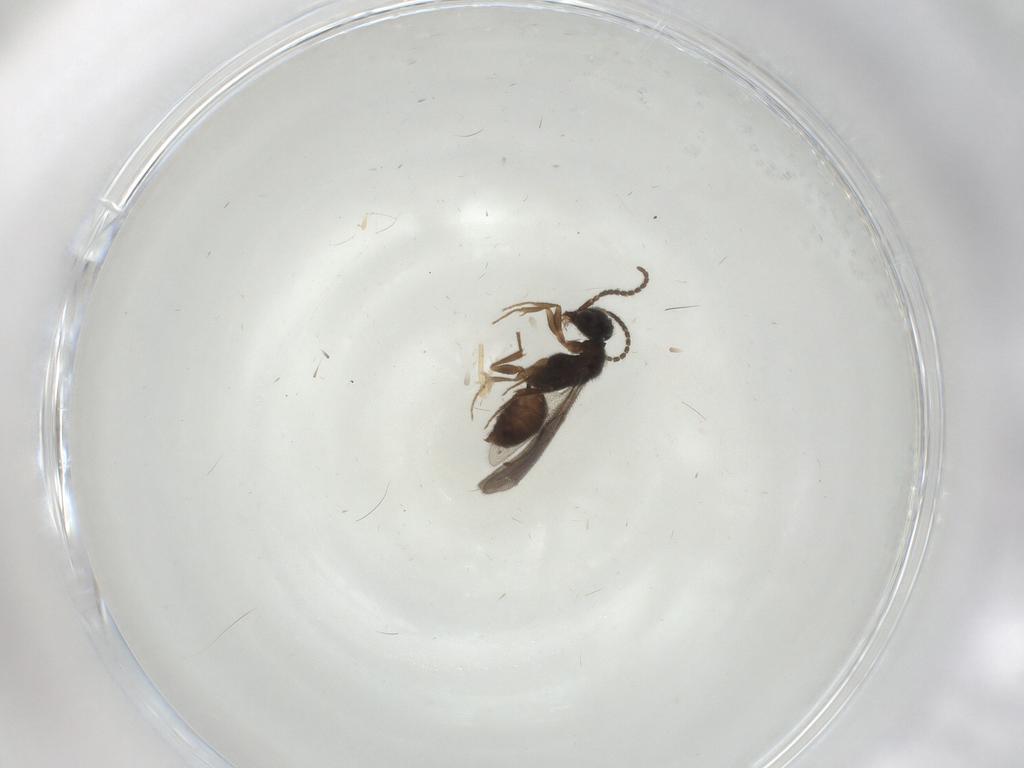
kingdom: Animalia
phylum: Arthropoda
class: Insecta
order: Hymenoptera
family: Bethylidae
